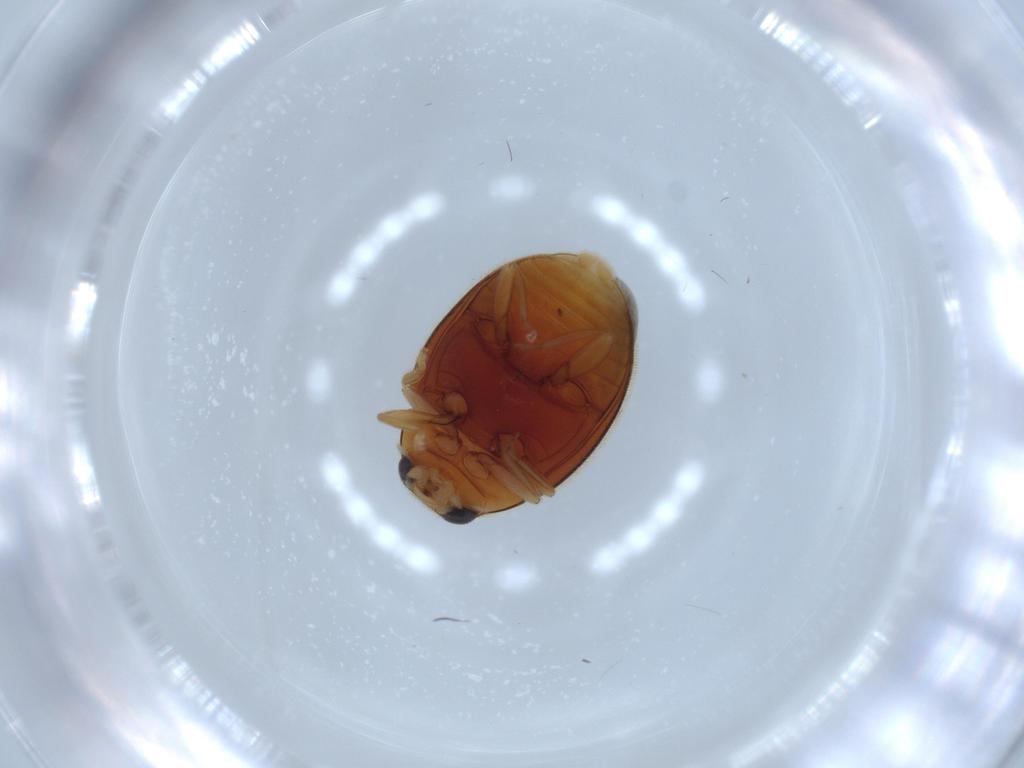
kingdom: Animalia
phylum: Arthropoda
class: Insecta
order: Coleoptera
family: Coccinellidae
